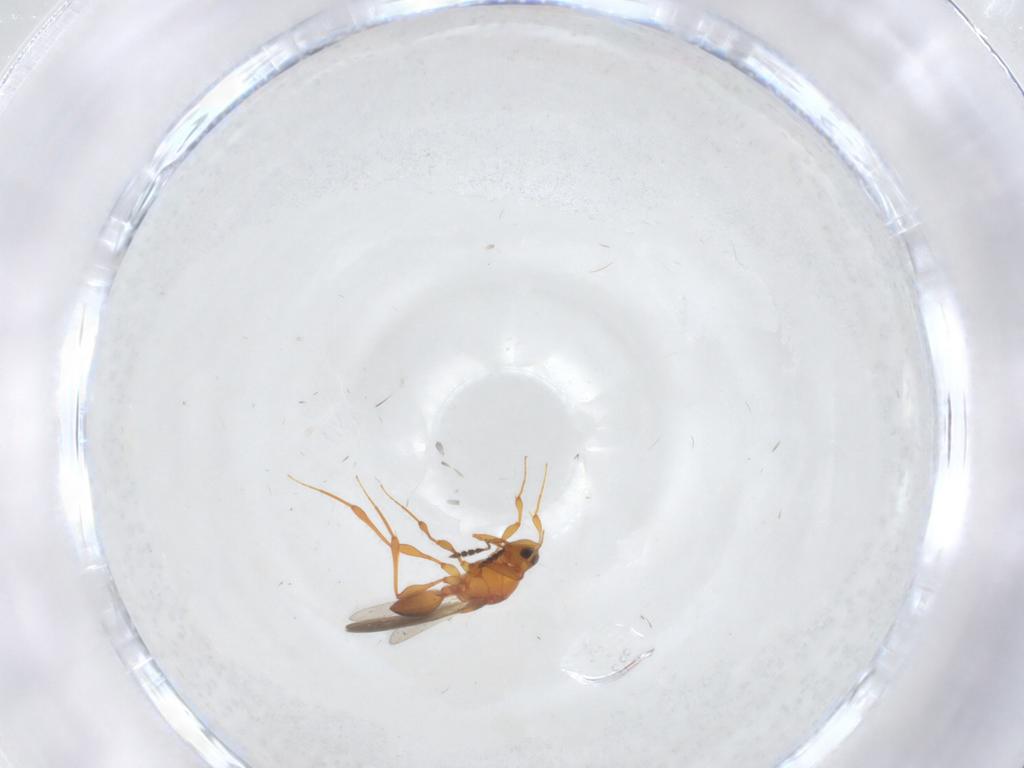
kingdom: Animalia
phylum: Arthropoda
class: Insecta
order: Hymenoptera
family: Platygastridae
